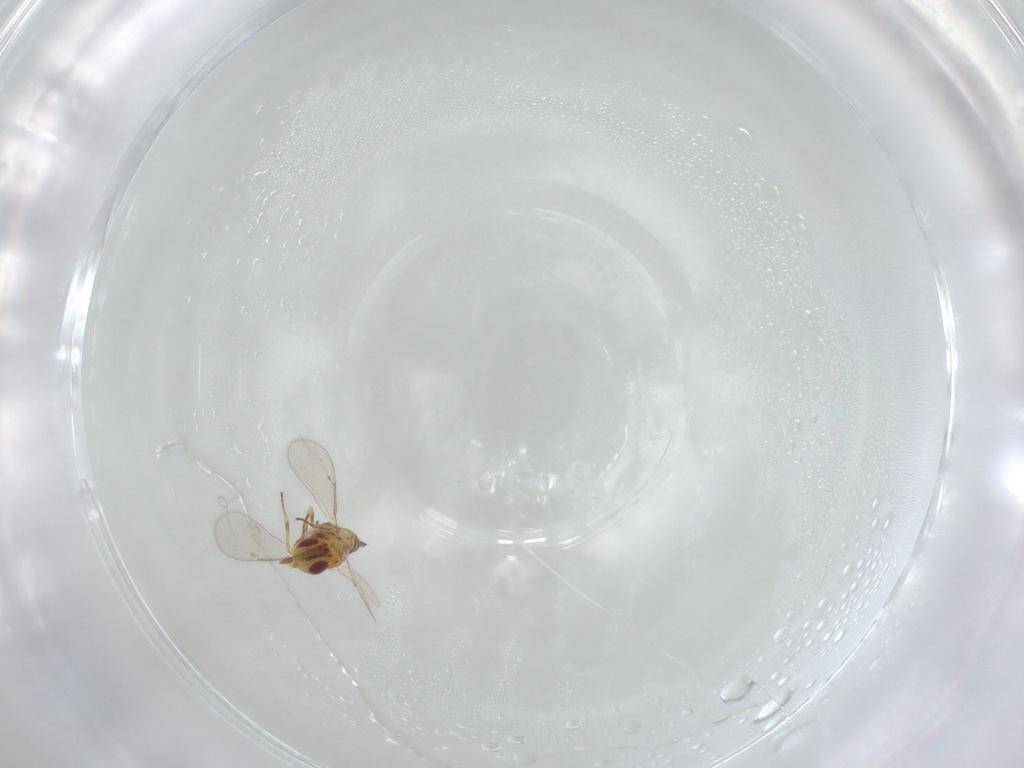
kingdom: Animalia
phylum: Arthropoda
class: Insecta
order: Hymenoptera
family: Eulophidae
